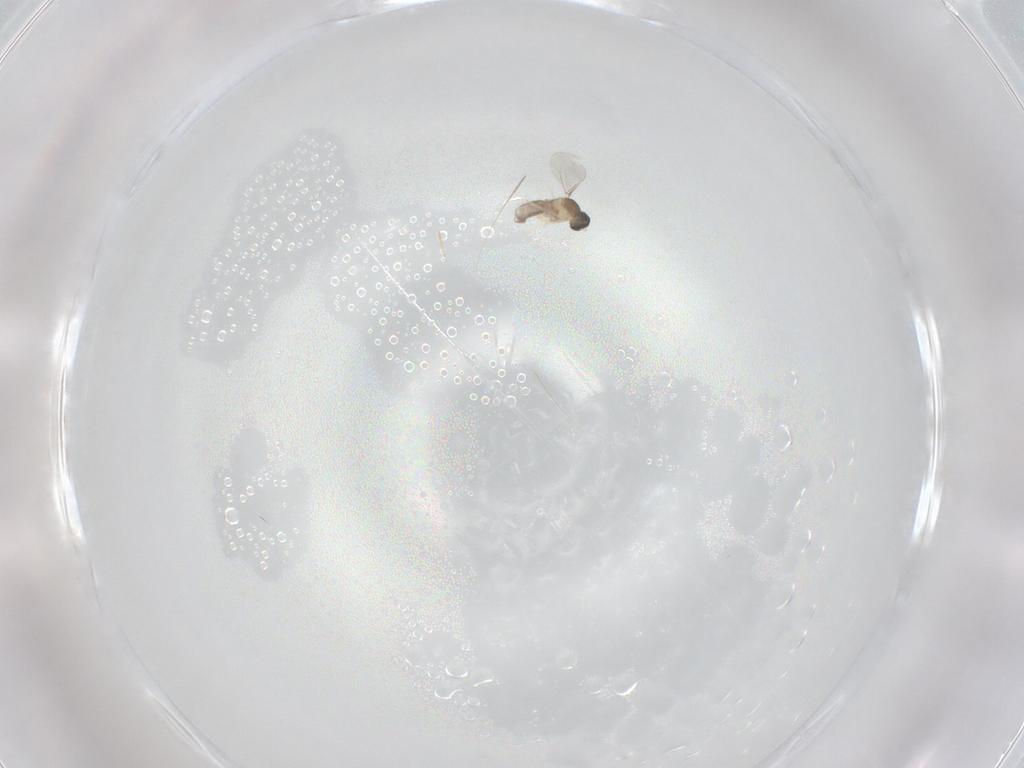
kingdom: Animalia
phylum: Arthropoda
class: Insecta
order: Diptera
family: Cecidomyiidae
